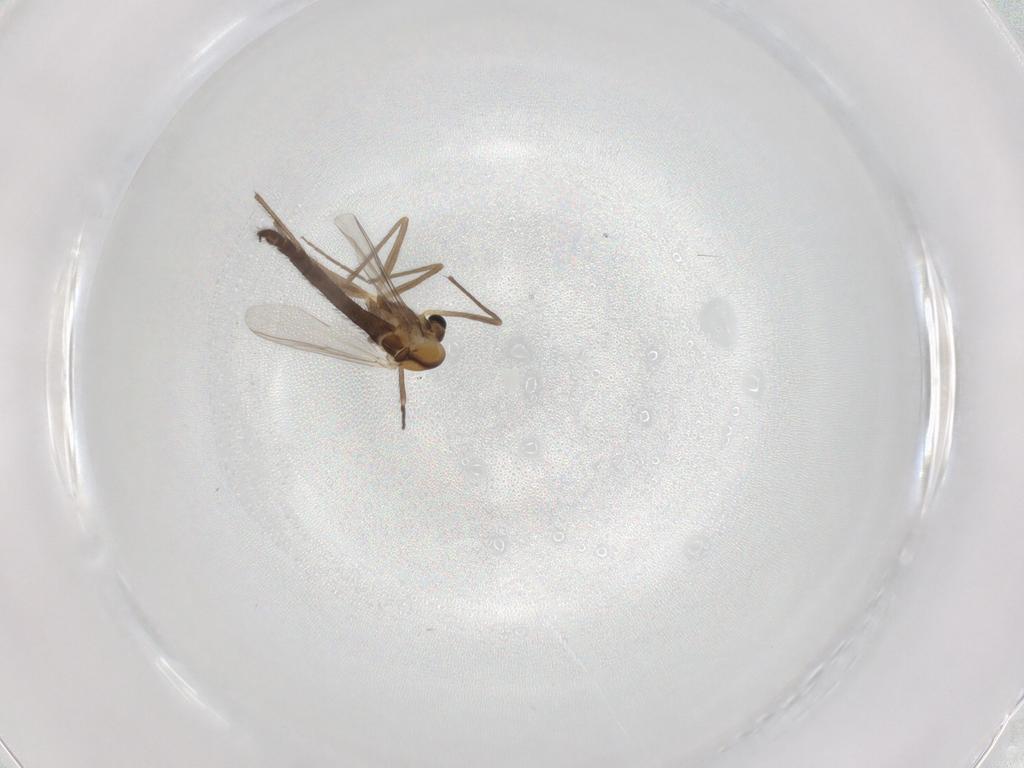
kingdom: Animalia
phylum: Arthropoda
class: Insecta
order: Diptera
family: Chironomidae
